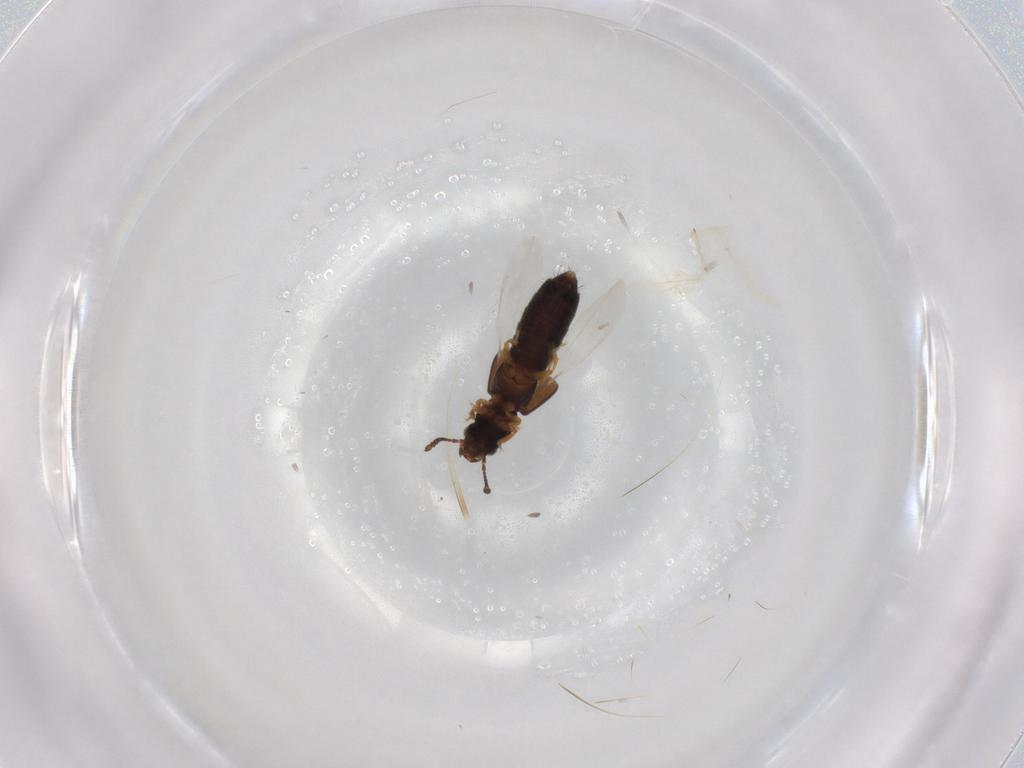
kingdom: Animalia
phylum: Arthropoda
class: Insecta
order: Coleoptera
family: Staphylinidae
